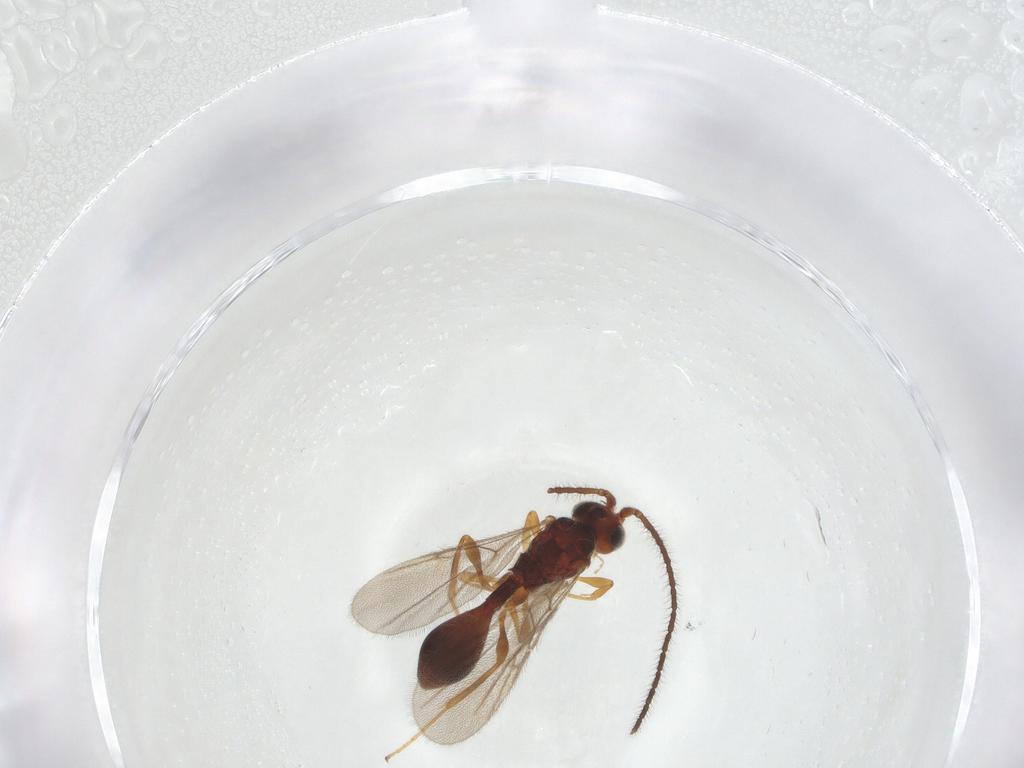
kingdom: Animalia
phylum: Arthropoda
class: Insecta
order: Hymenoptera
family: Diapriidae
